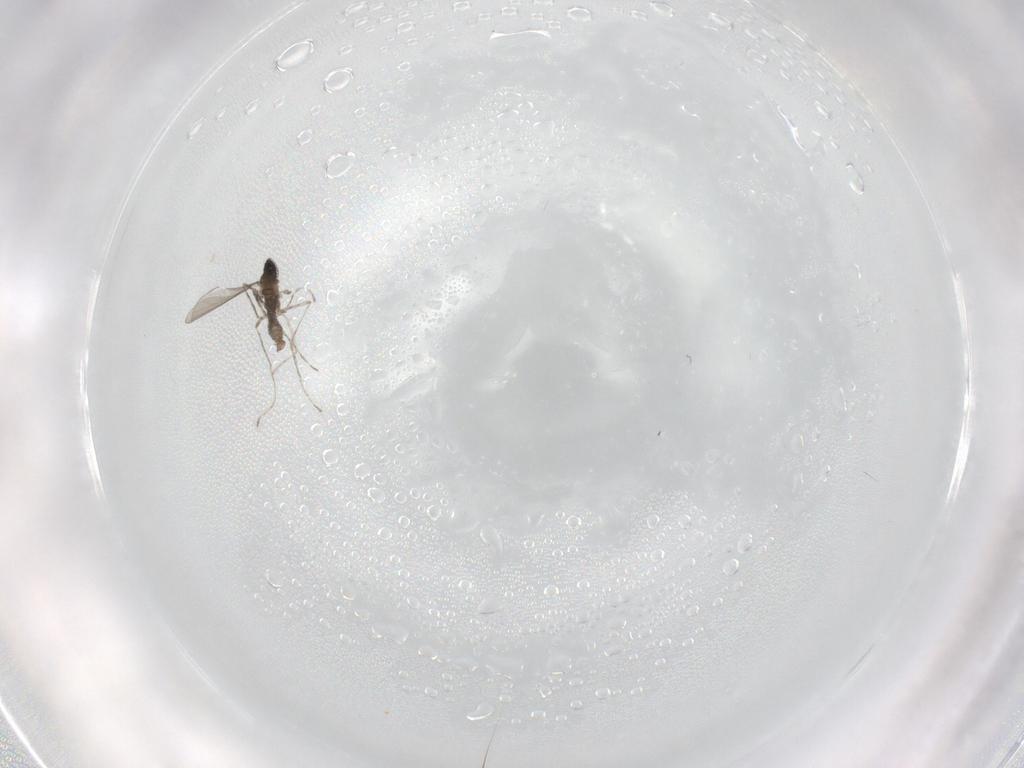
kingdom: Animalia
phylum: Arthropoda
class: Insecta
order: Diptera
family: Cecidomyiidae
